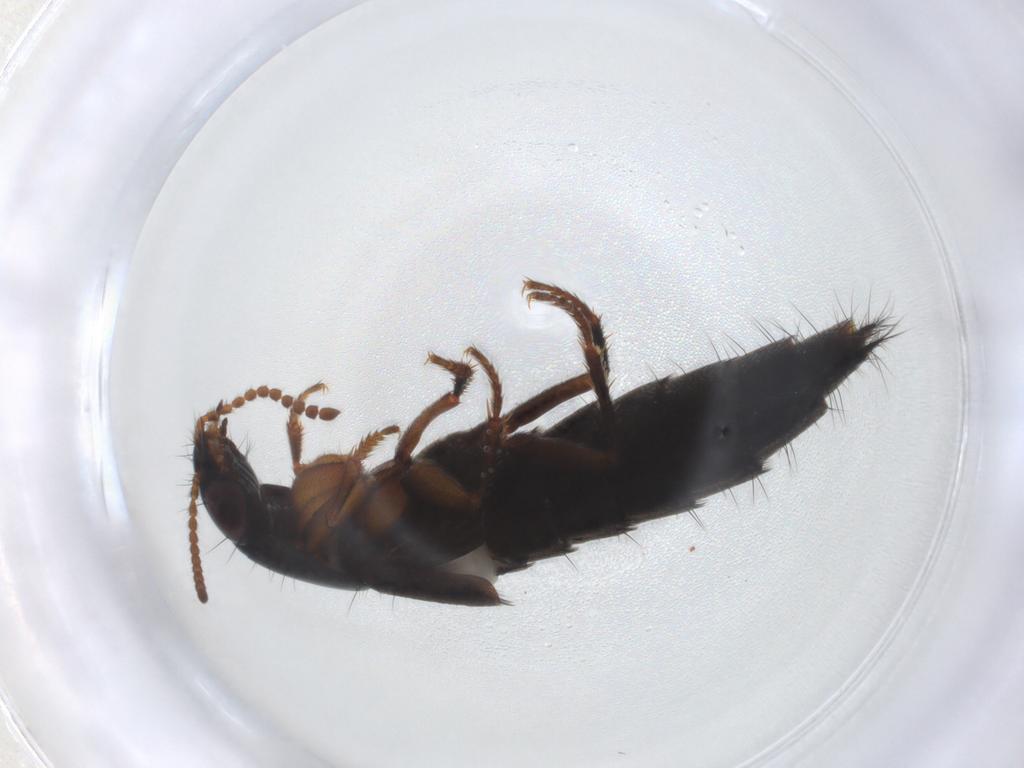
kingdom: Animalia
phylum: Arthropoda
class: Insecta
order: Coleoptera
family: Staphylinidae
